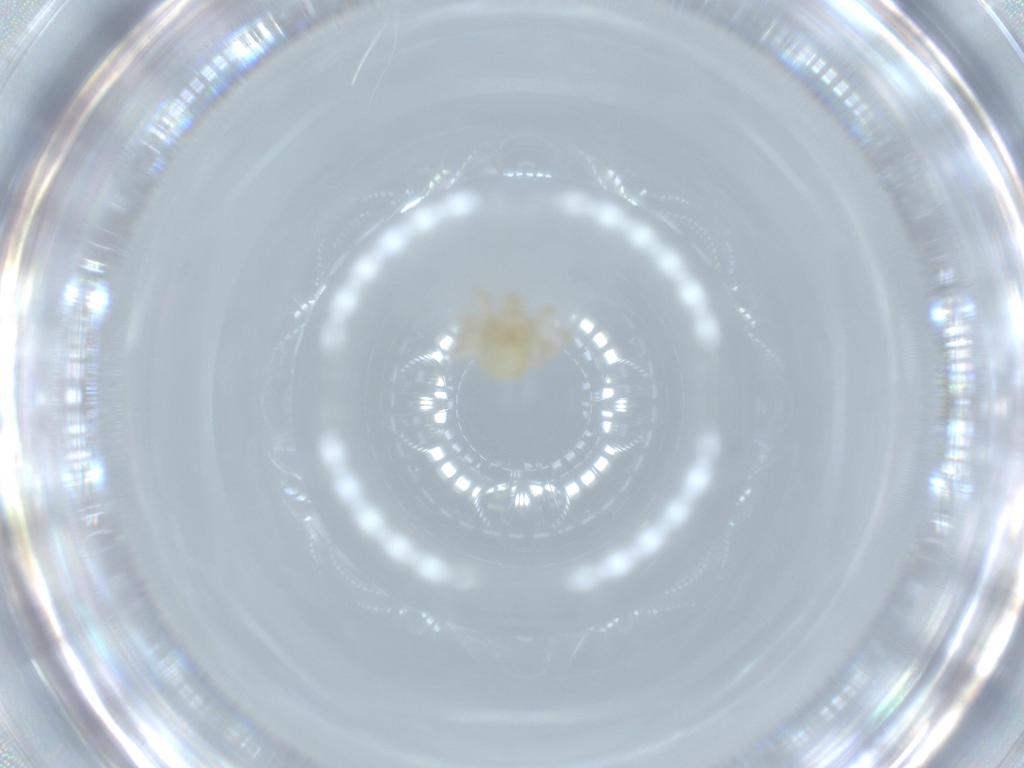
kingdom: Animalia
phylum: Arthropoda
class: Arachnida
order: Trombidiformes
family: Anystidae
